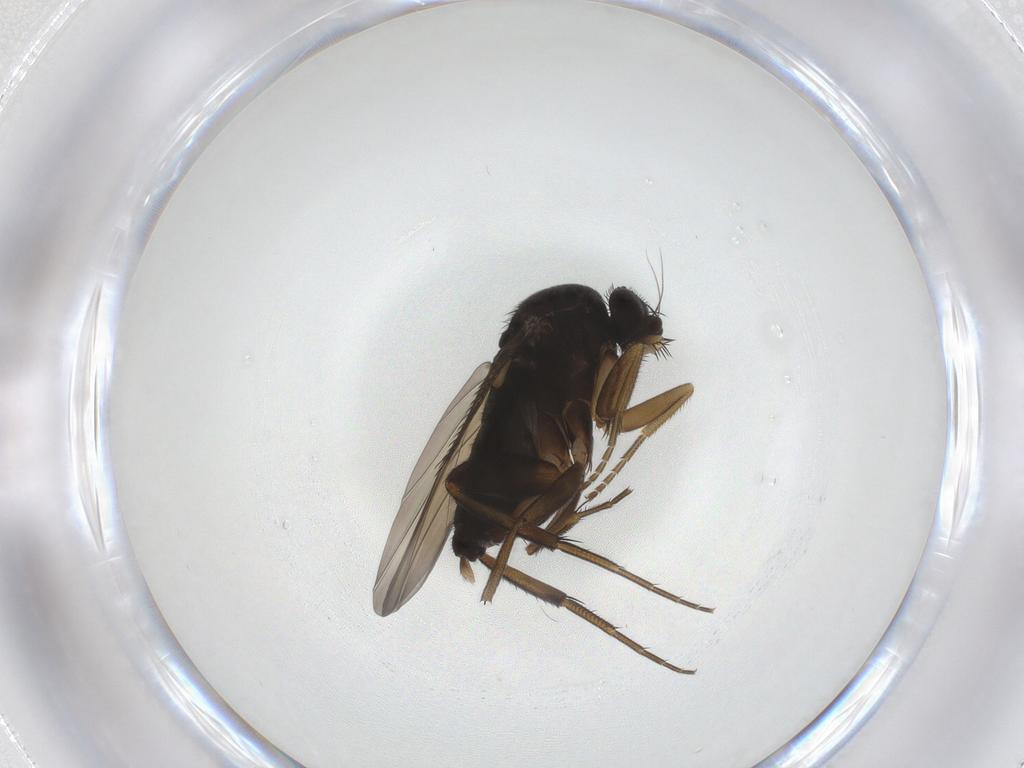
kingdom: Animalia
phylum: Arthropoda
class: Insecta
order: Diptera
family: Phoridae
